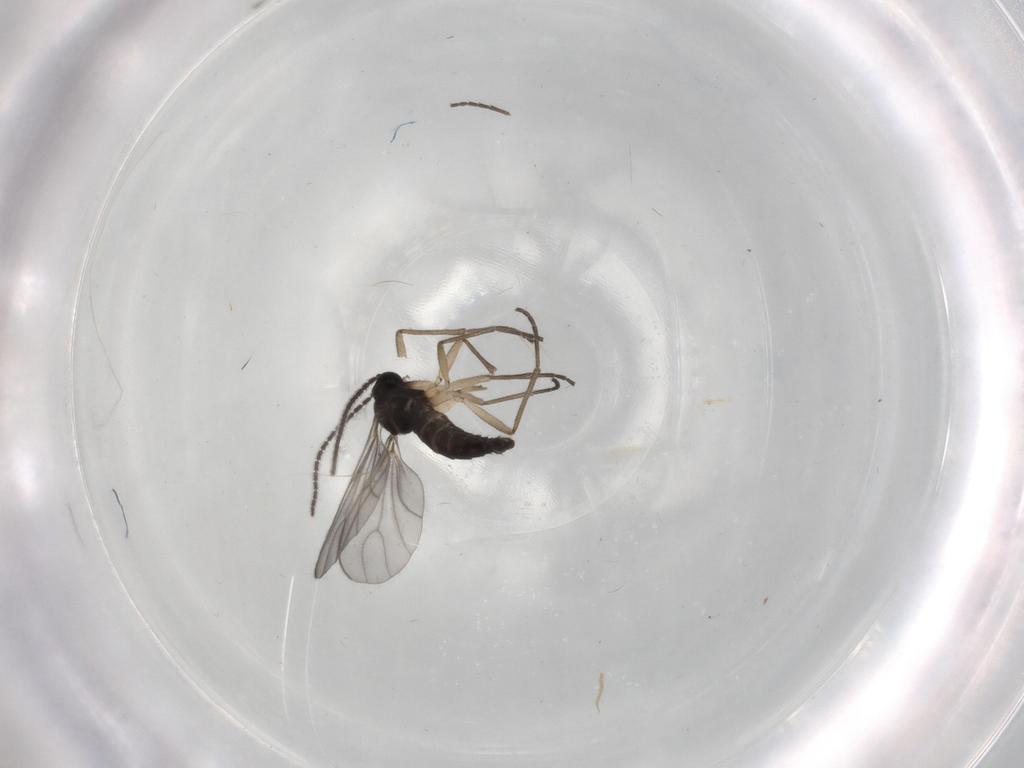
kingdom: Animalia
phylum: Arthropoda
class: Insecta
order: Diptera
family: Sciaridae
